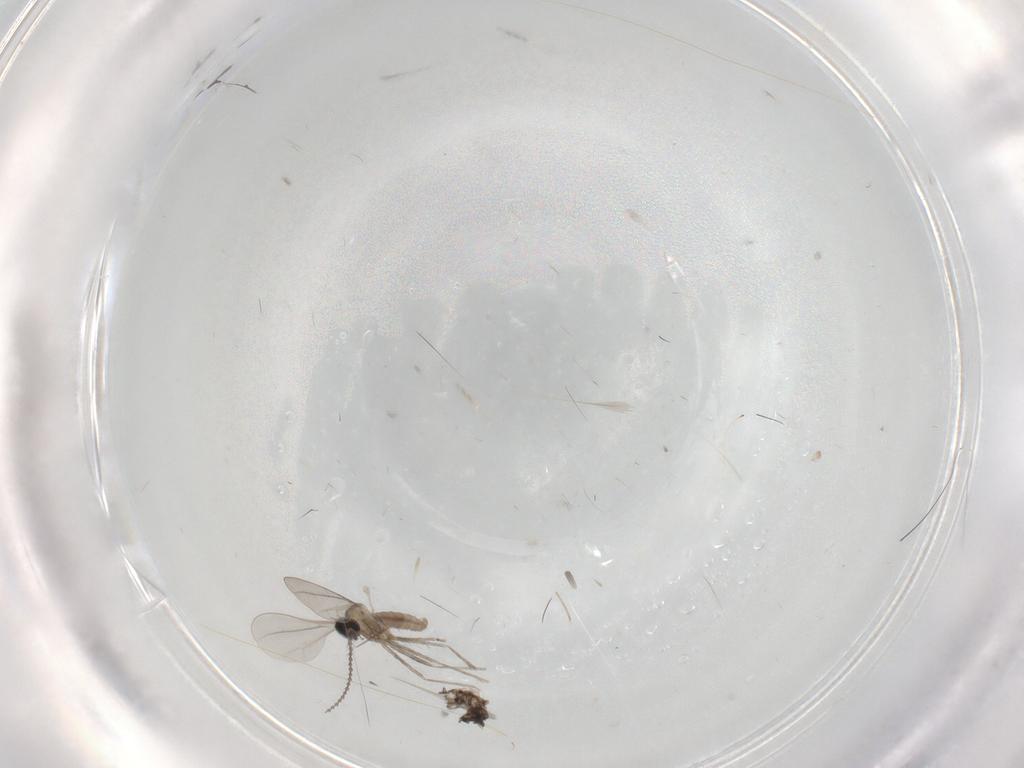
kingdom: Animalia
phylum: Arthropoda
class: Insecta
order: Diptera
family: Cecidomyiidae
